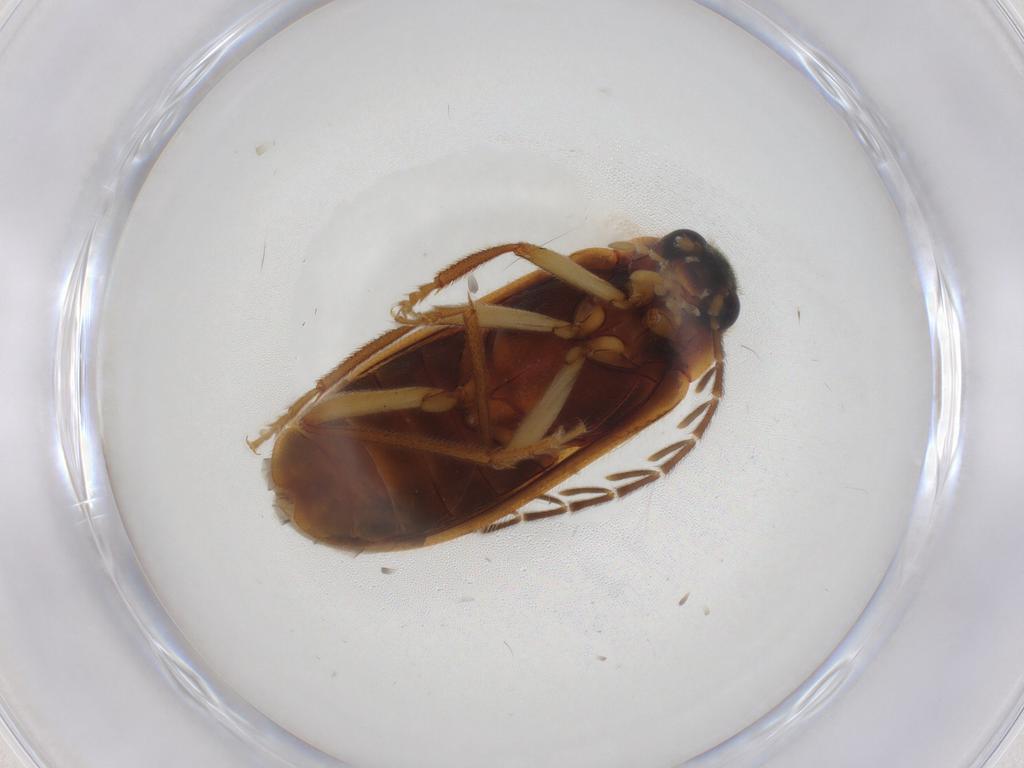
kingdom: Animalia
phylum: Arthropoda
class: Insecta
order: Coleoptera
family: Ptilodactylidae
